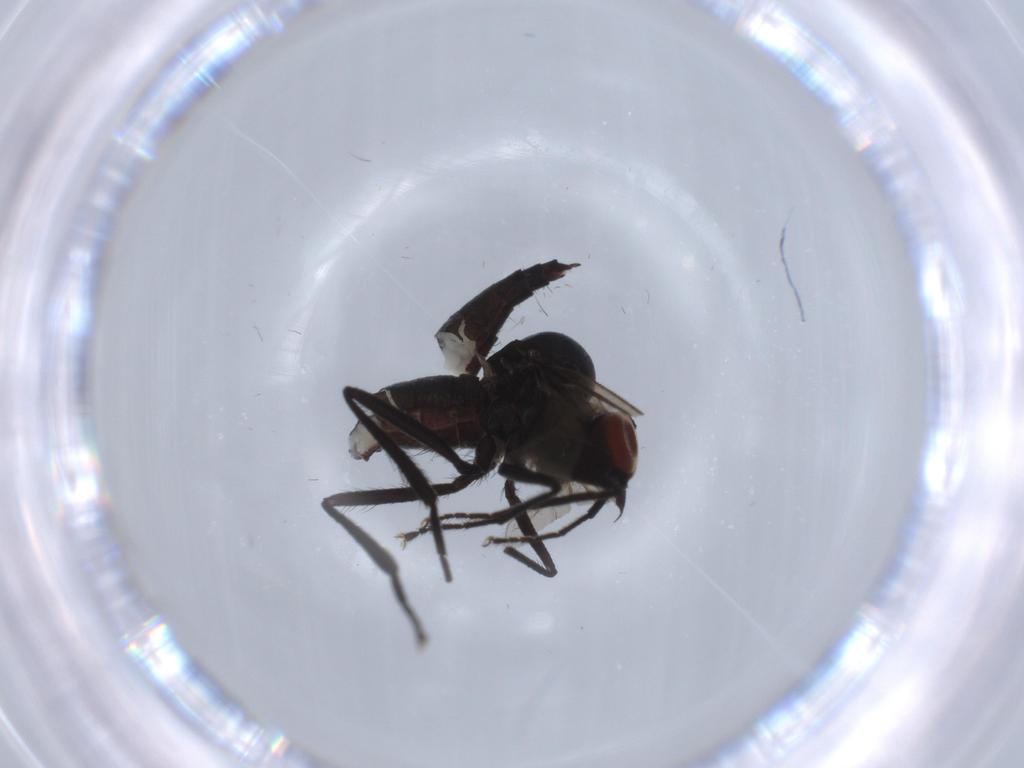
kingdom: Animalia
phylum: Arthropoda
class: Insecta
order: Diptera
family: Hybotidae
